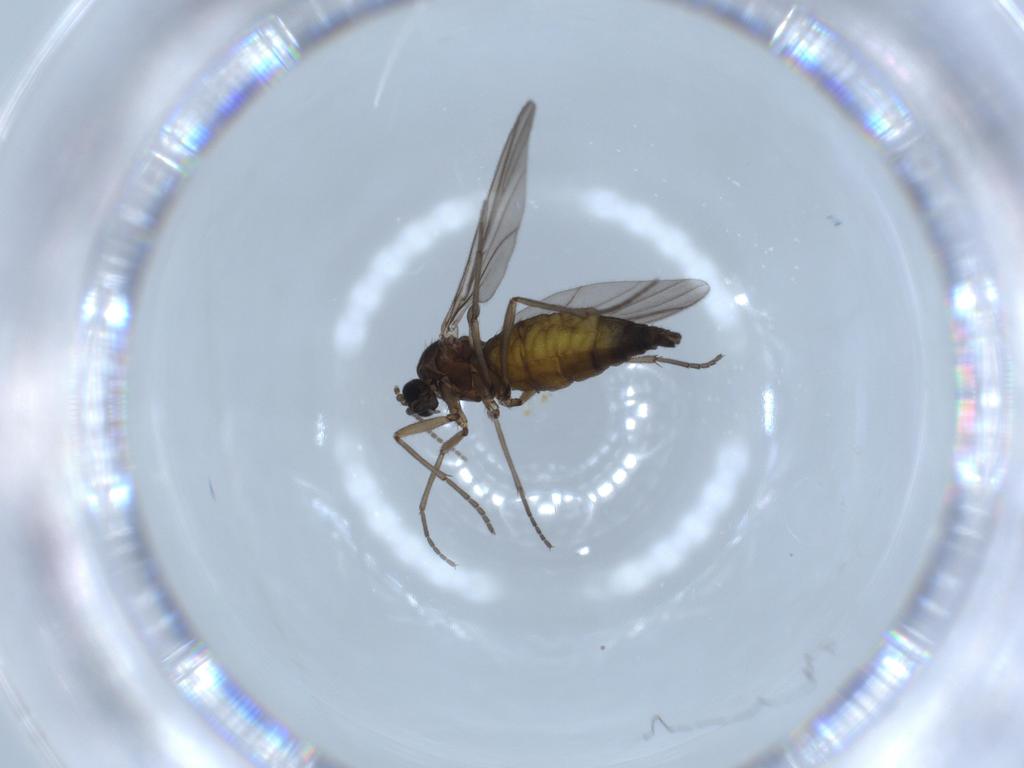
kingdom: Animalia
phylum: Arthropoda
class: Insecta
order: Diptera
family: Sciaridae
